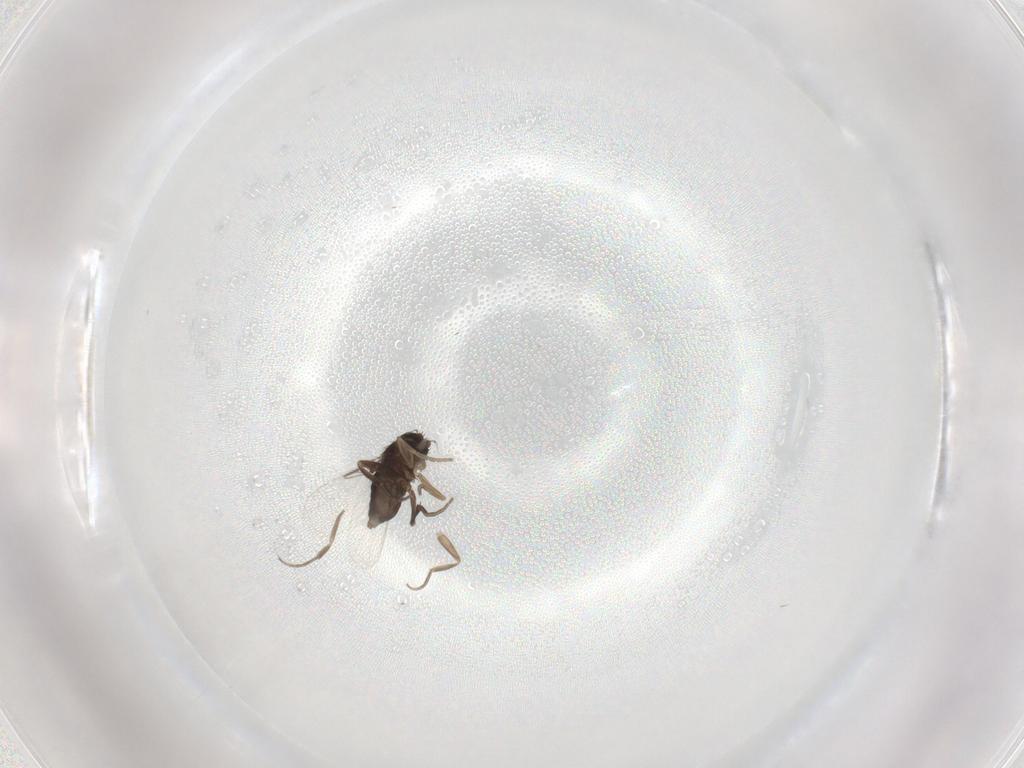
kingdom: Animalia
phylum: Arthropoda
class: Insecta
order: Diptera
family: Phoridae
